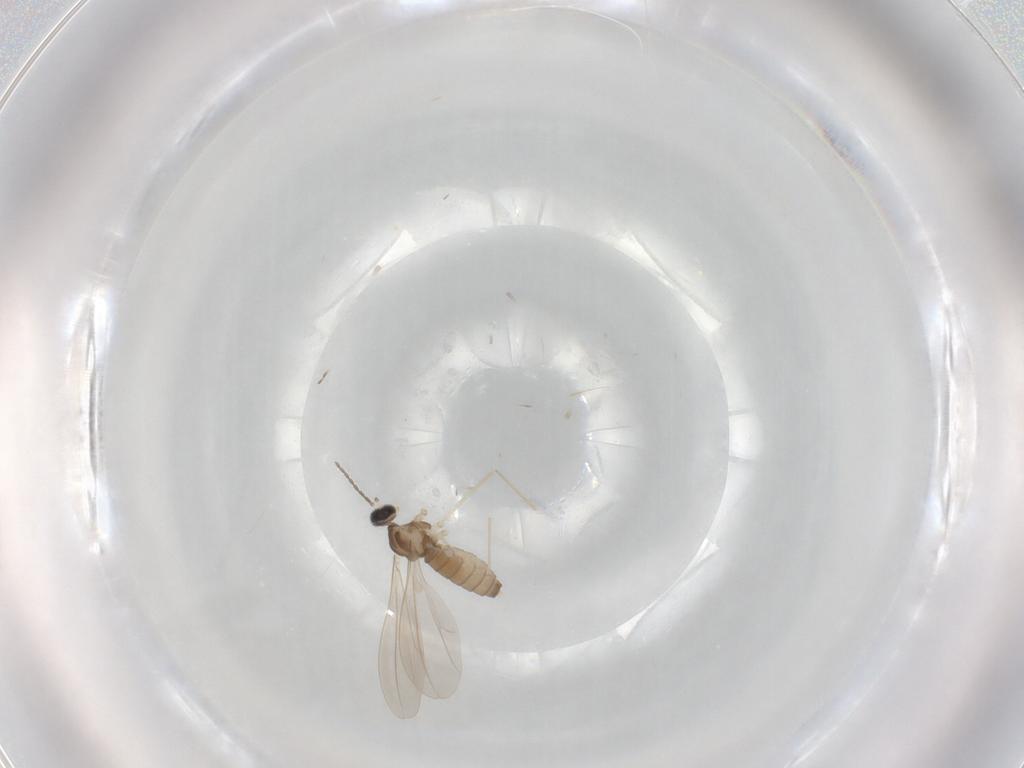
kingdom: Animalia
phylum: Arthropoda
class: Insecta
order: Diptera
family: Cecidomyiidae
